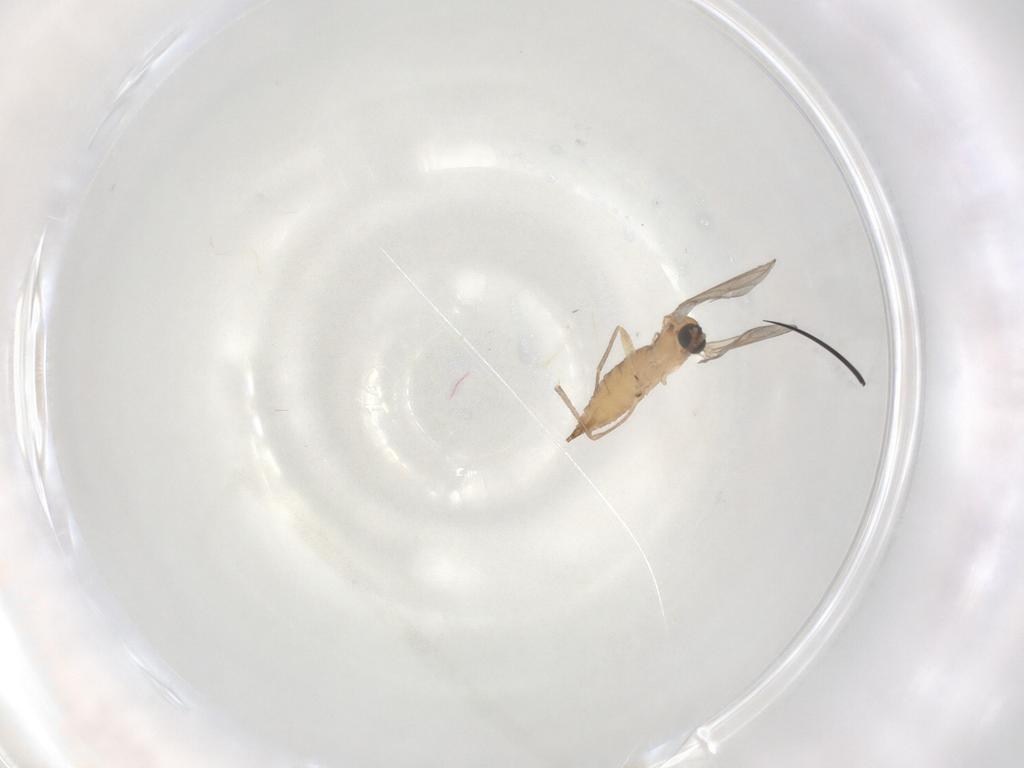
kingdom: Animalia
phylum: Arthropoda
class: Insecta
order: Diptera
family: Sciaridae
